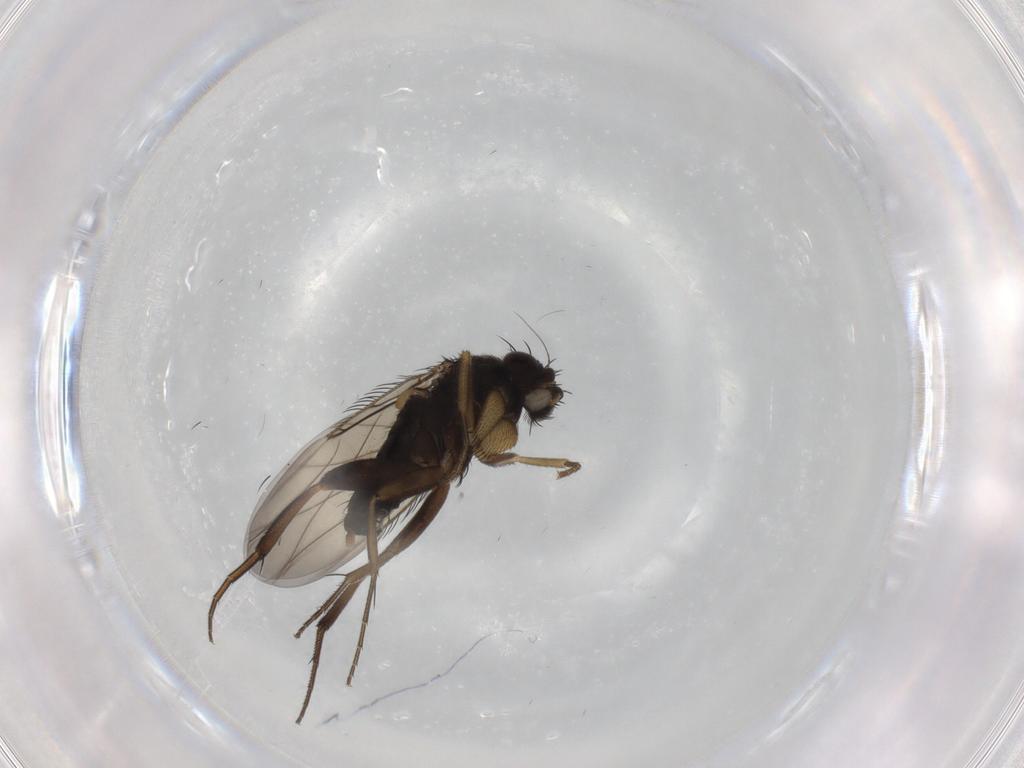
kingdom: Animalia
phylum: Arthropoda
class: Insecta
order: Diptera
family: Phoridae
